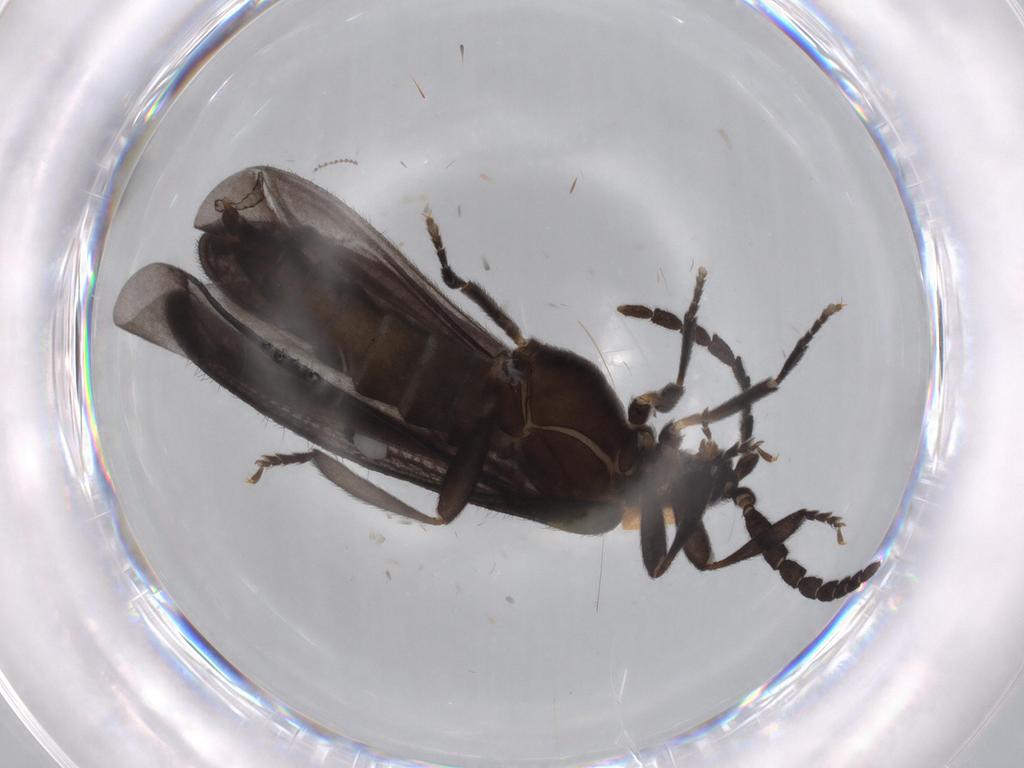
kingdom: Animalia
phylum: Arthropoda
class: Insecta
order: Coleoptera
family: Lycidae
